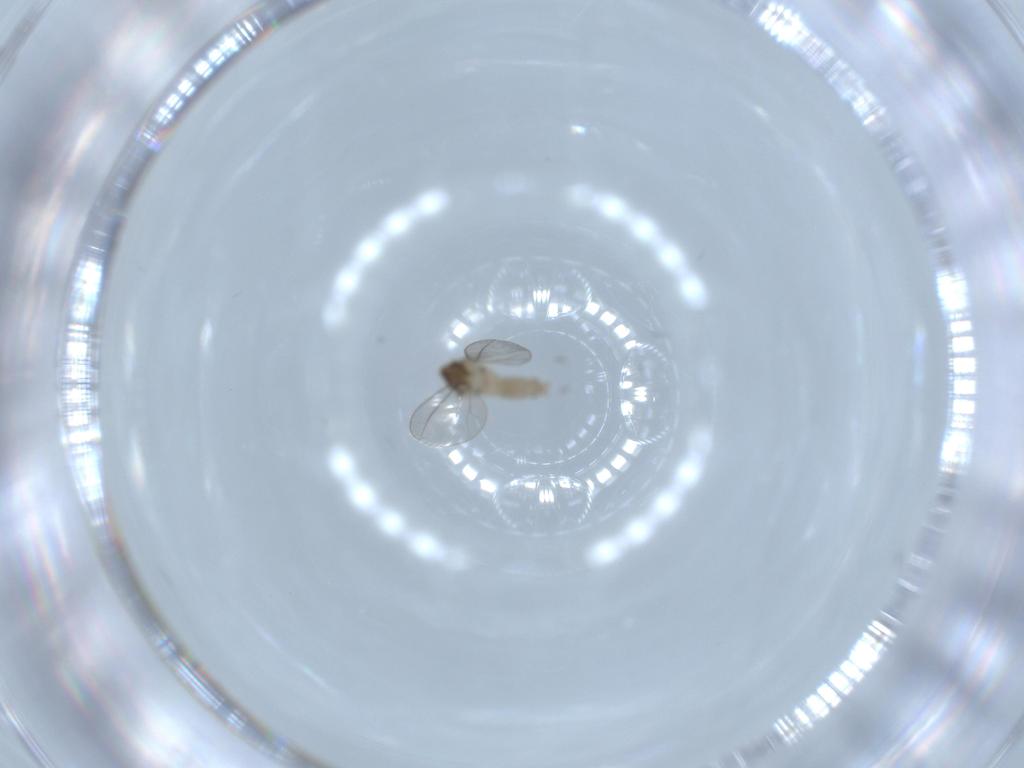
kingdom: Animalia
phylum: Arthropoda
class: Insecta
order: Diptera
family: Cecidomyiidae
